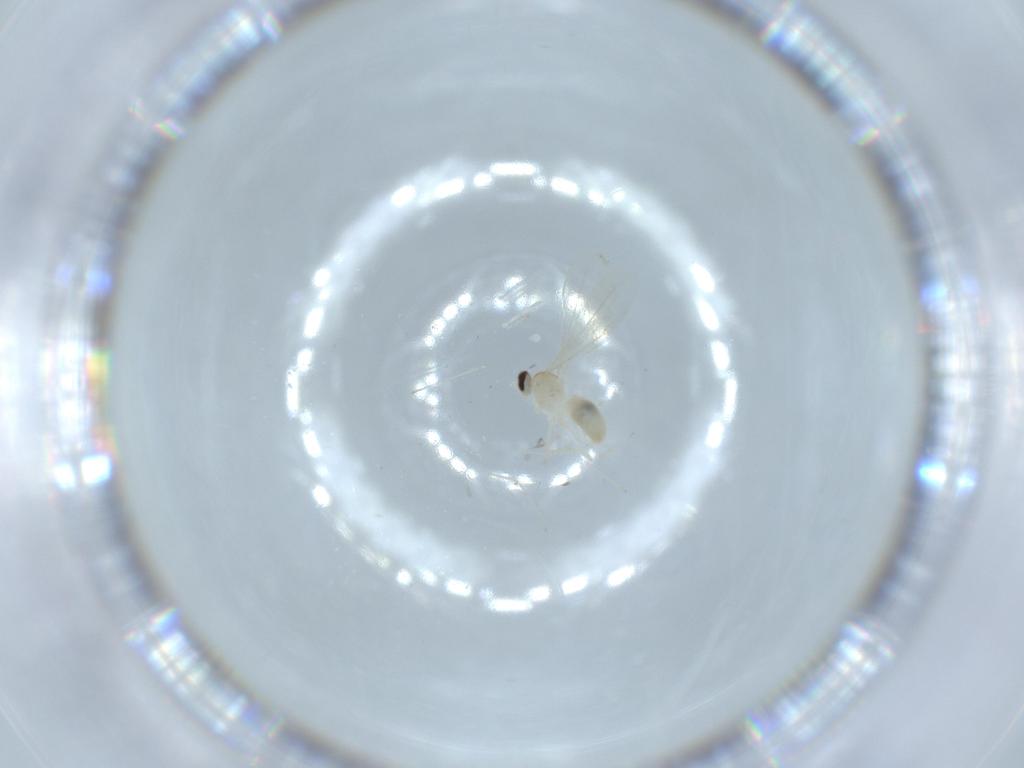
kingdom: Animalia
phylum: Arthropoda
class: Insecta
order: Diptera
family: Cecidomyiidae
